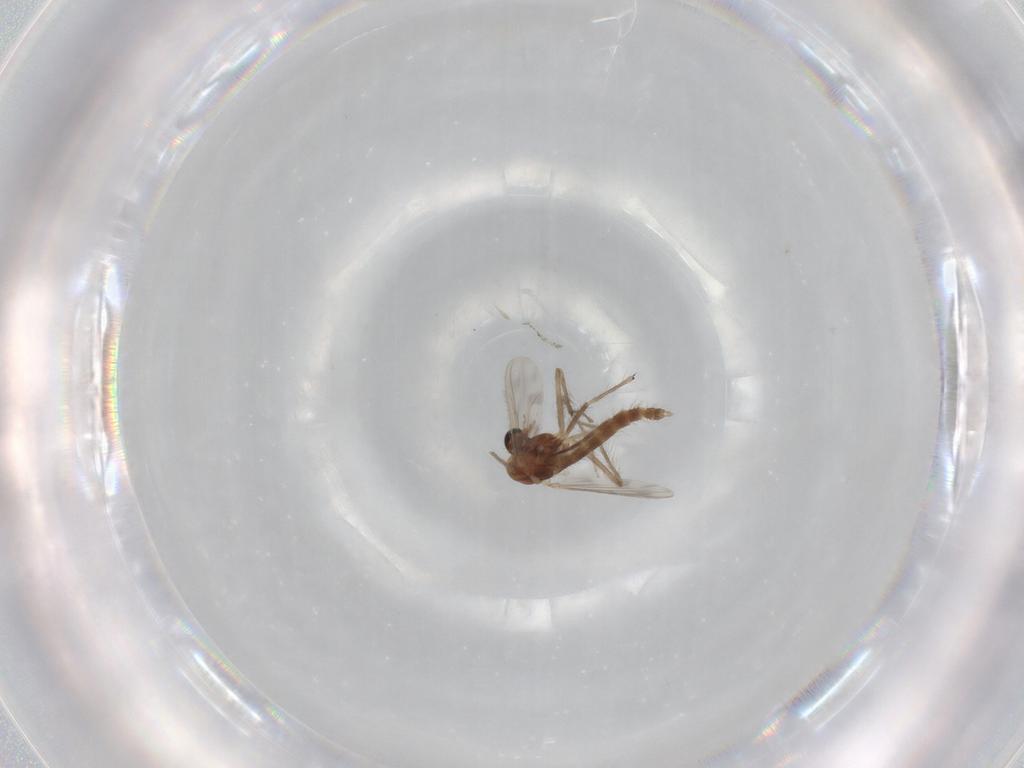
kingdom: Animalia
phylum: Arthropoda
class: Insecta
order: Diptera
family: Chironomidae
